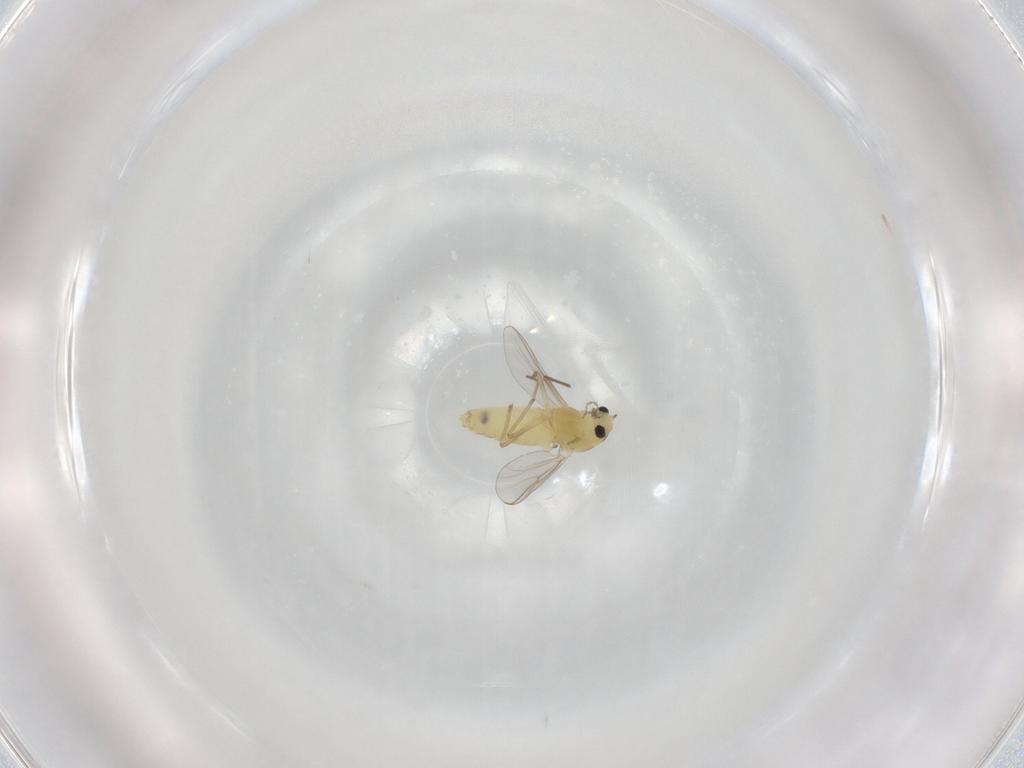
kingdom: Animalia
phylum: Arthropoda
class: Insecta
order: Diptera
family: Chironomidae
